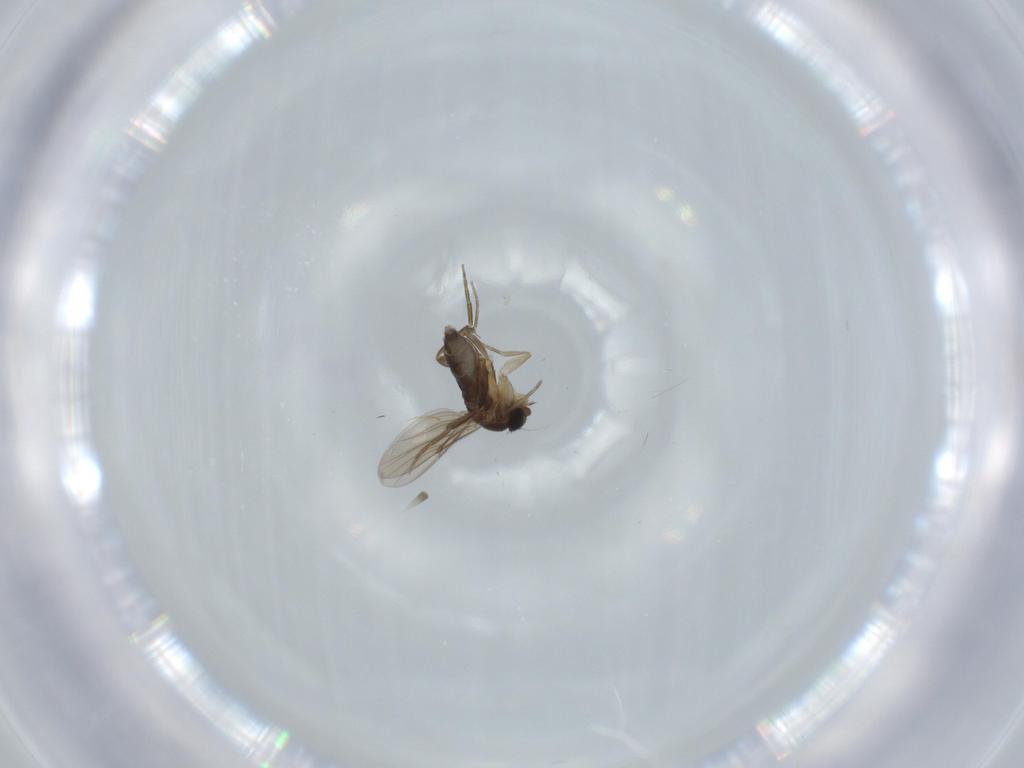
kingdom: Animalia
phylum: Arthropoda
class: Insecta
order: Diptera
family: Phoridae
